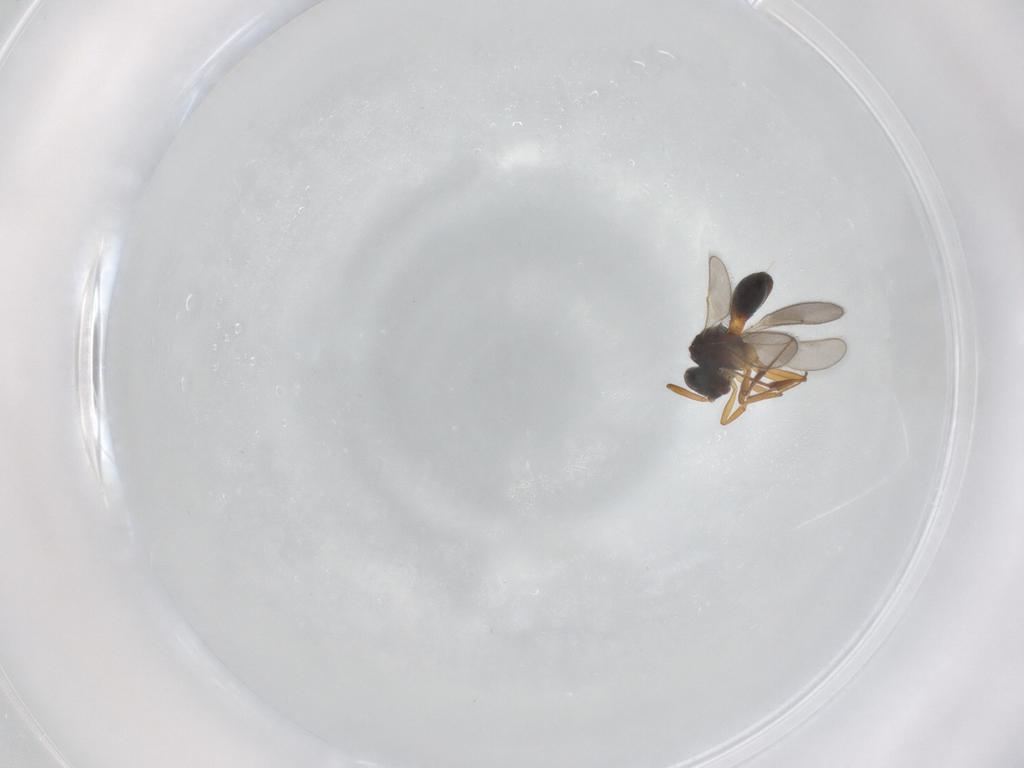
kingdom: Animalia
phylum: Arthropoda
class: Insecta
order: Hymenoptera
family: Scelionidae
